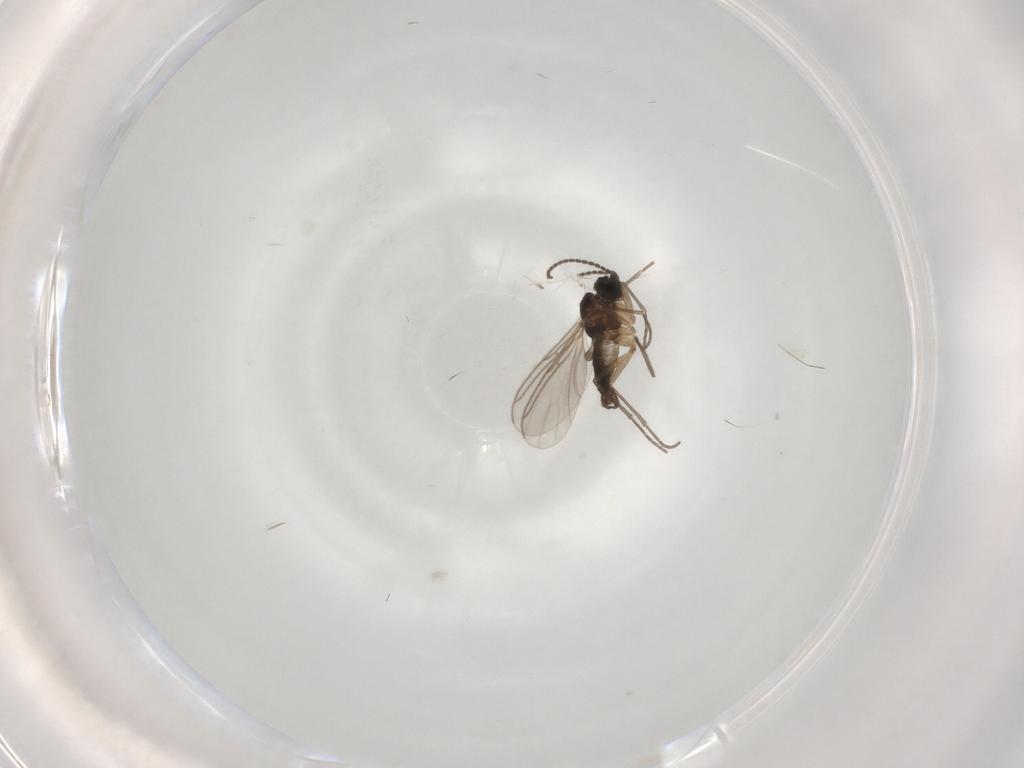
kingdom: Animalia
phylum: Arthropoda
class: Insecta
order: Diptera
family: Sciaridae
